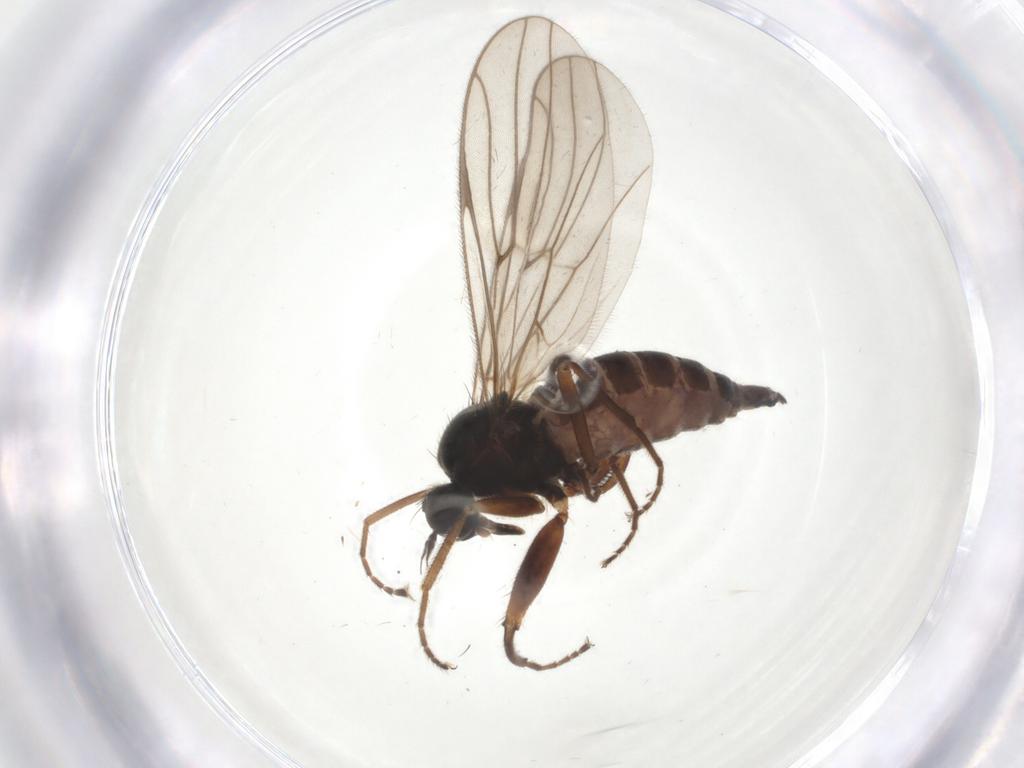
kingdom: Animalia
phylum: Arthropoda
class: Insecta
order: Diptera
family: Hybotidae
